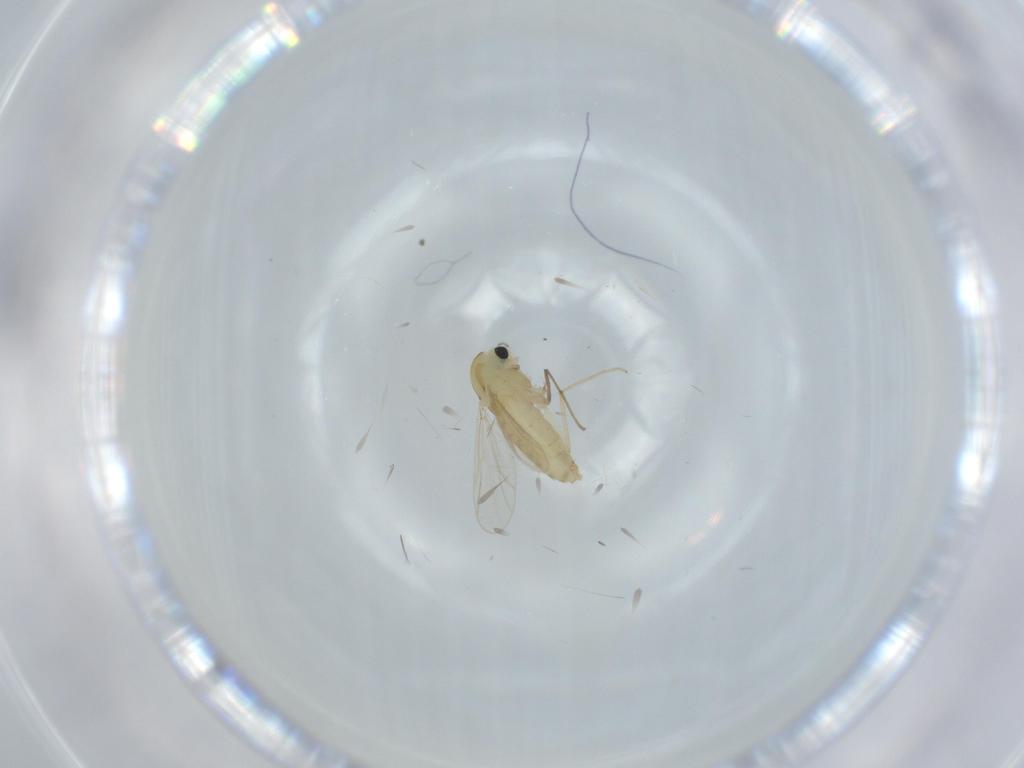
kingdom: Animalia
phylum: Arthropoda
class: Insecta
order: Diptera
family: Chironomidae
